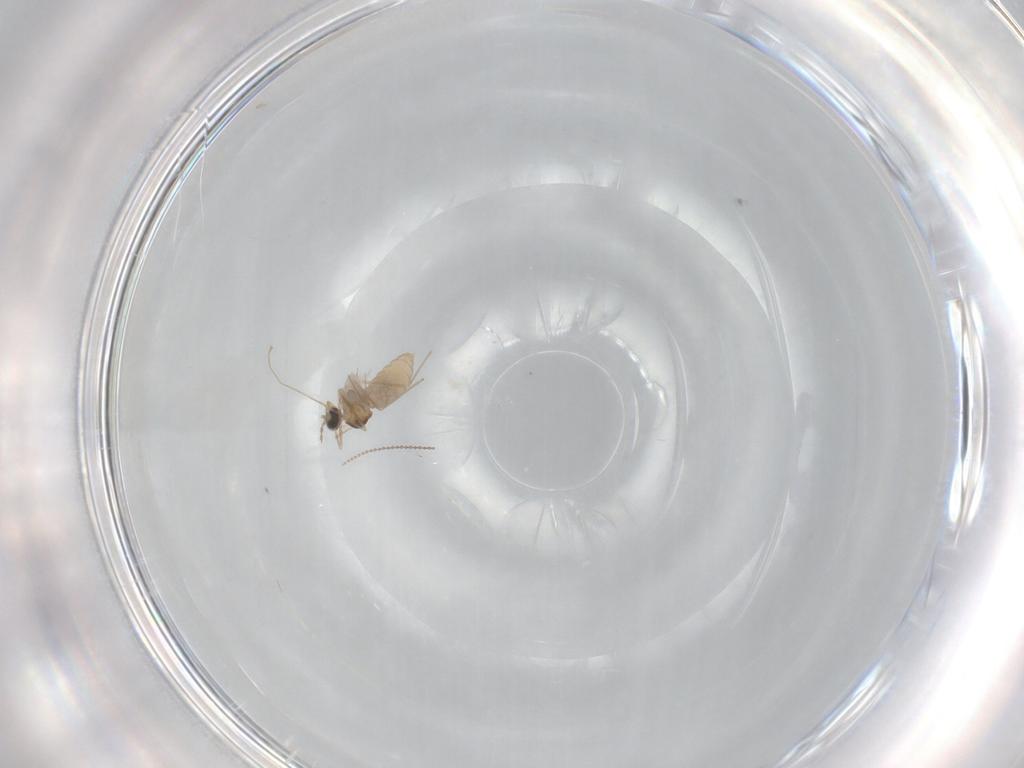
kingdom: Animalia
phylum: Arthropoda
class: Insecta
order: Diptera
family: Cecidomyiidae
